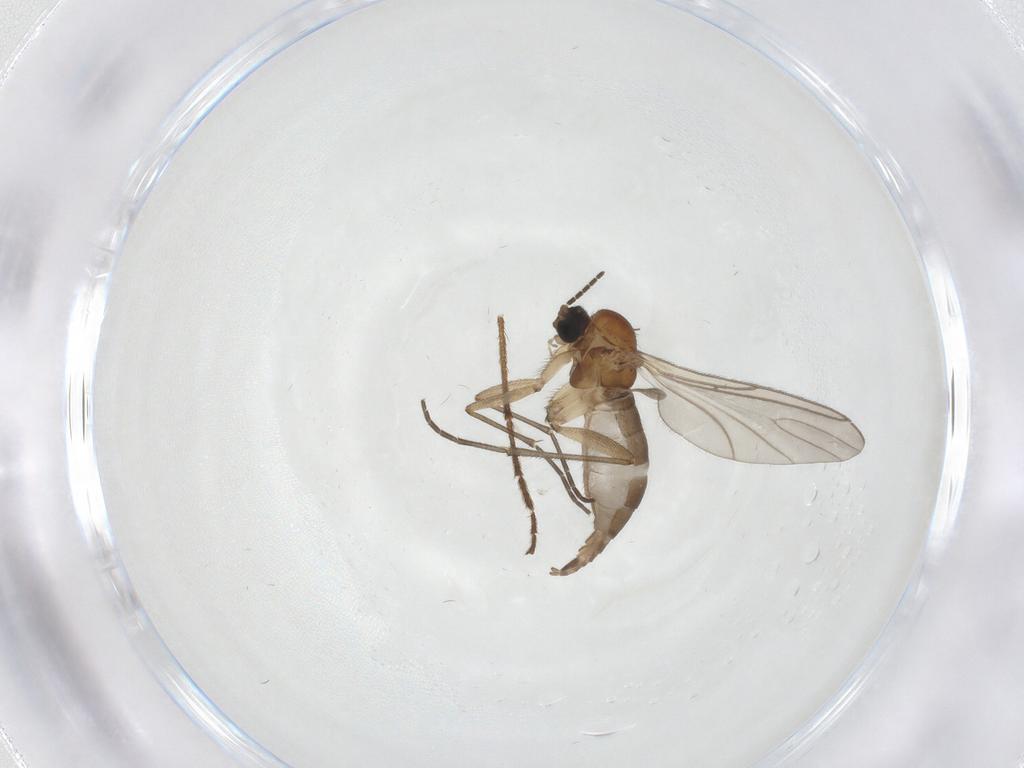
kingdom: Animalia
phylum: Arthropoda
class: Insecta
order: Diptera
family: Sciaridae
